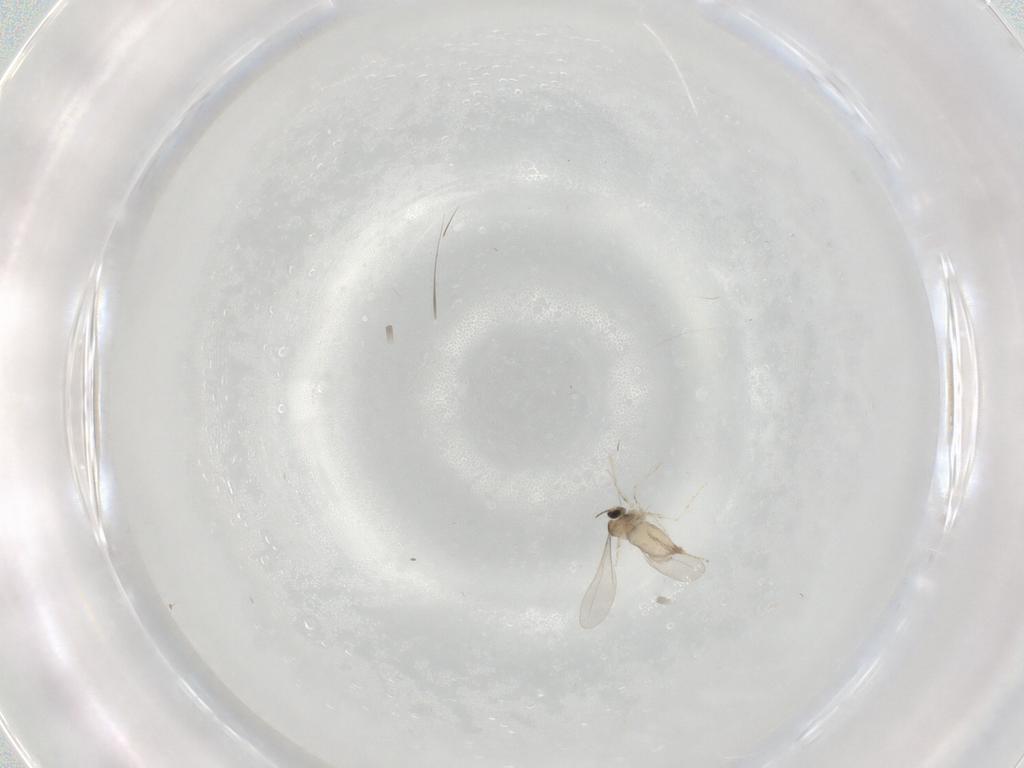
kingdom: Animalia
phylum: Arthropoda
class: Insecta
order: Diptera
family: Cecidomyiidae
